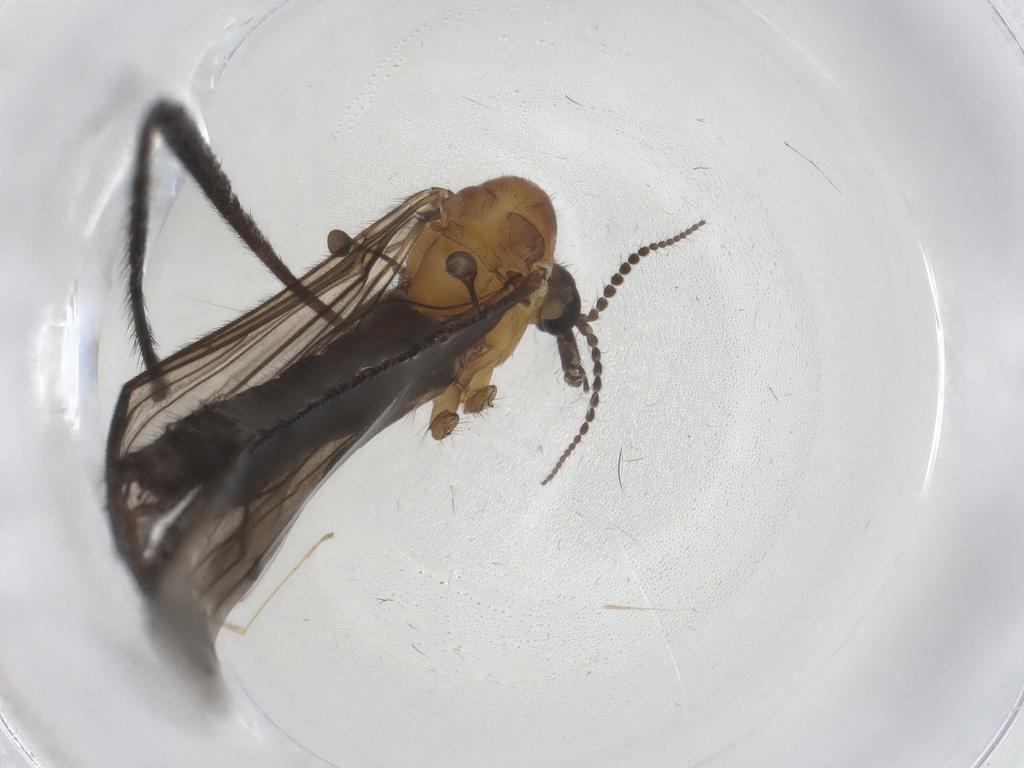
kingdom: Animalia
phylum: Arthropoda
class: Insecta
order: Diptera
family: Limoniidae
